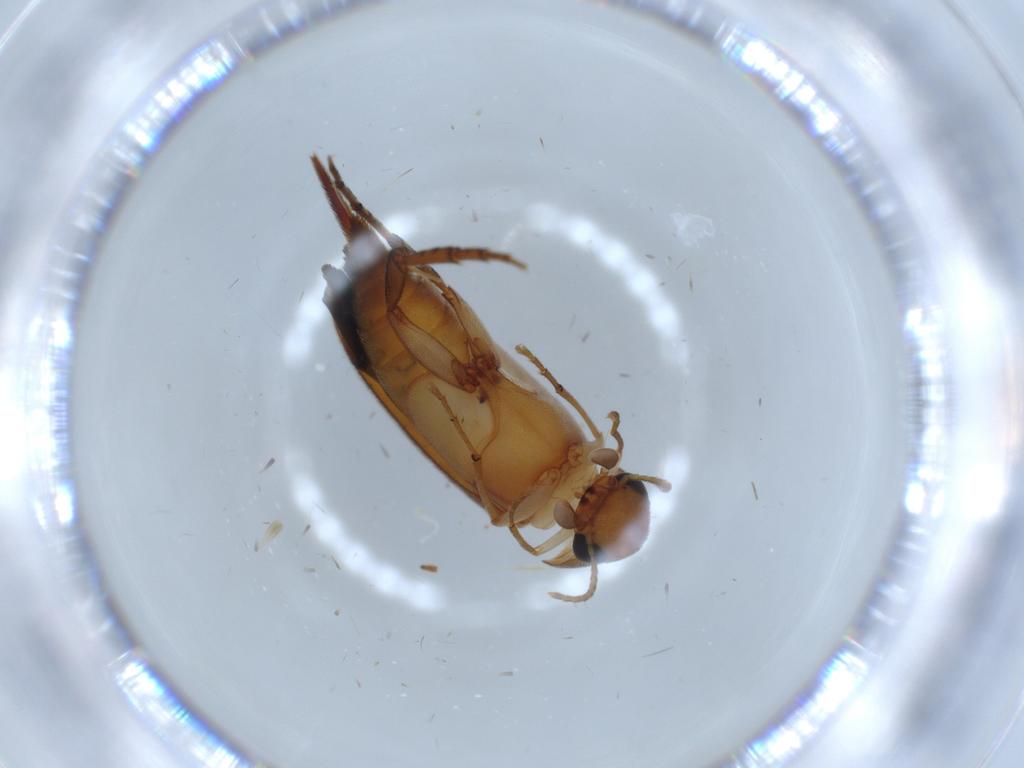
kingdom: Animalia
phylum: Arthropoda
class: Insecta
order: Coleoptera
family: Mordellidae
